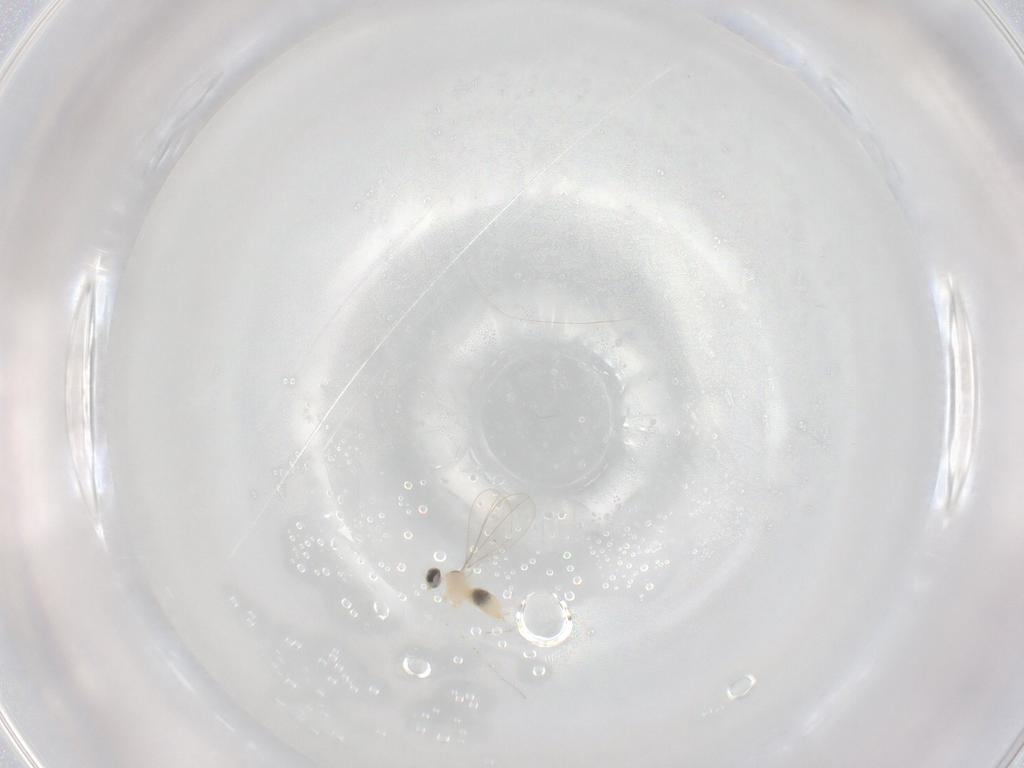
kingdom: Animalia
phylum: Arthropoda
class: Insecta
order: Diptera
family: Cecidomyiidae
